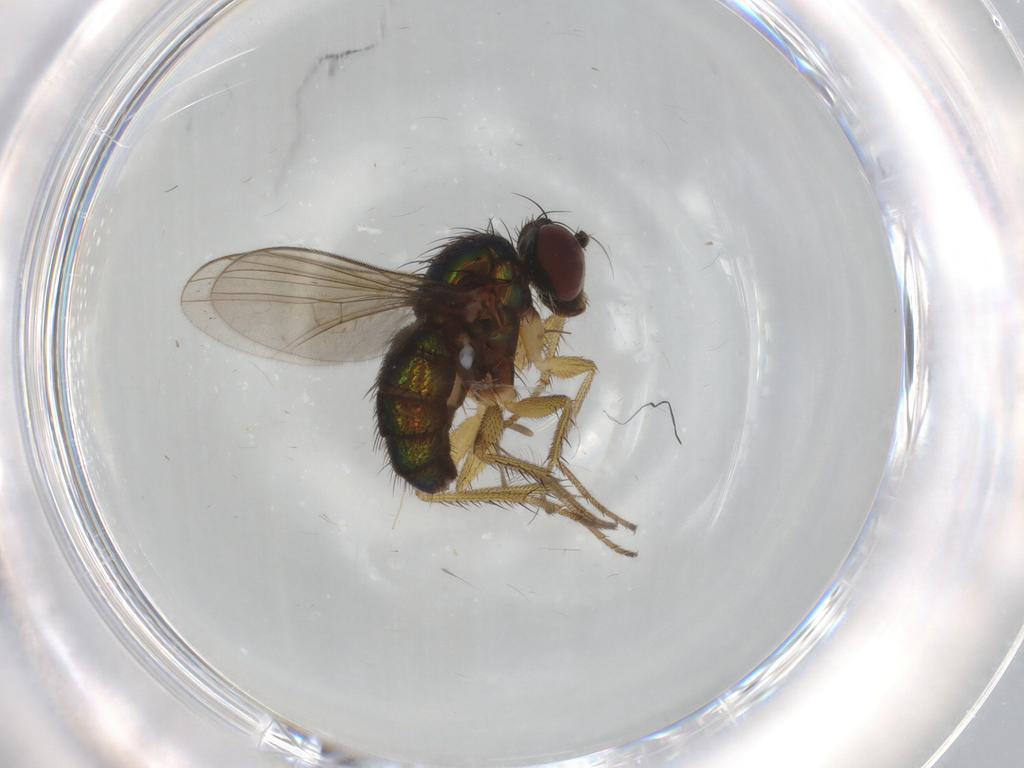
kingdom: Animalia
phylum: Arthropoda
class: Insecta
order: Diptera
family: Dolichopodidae
